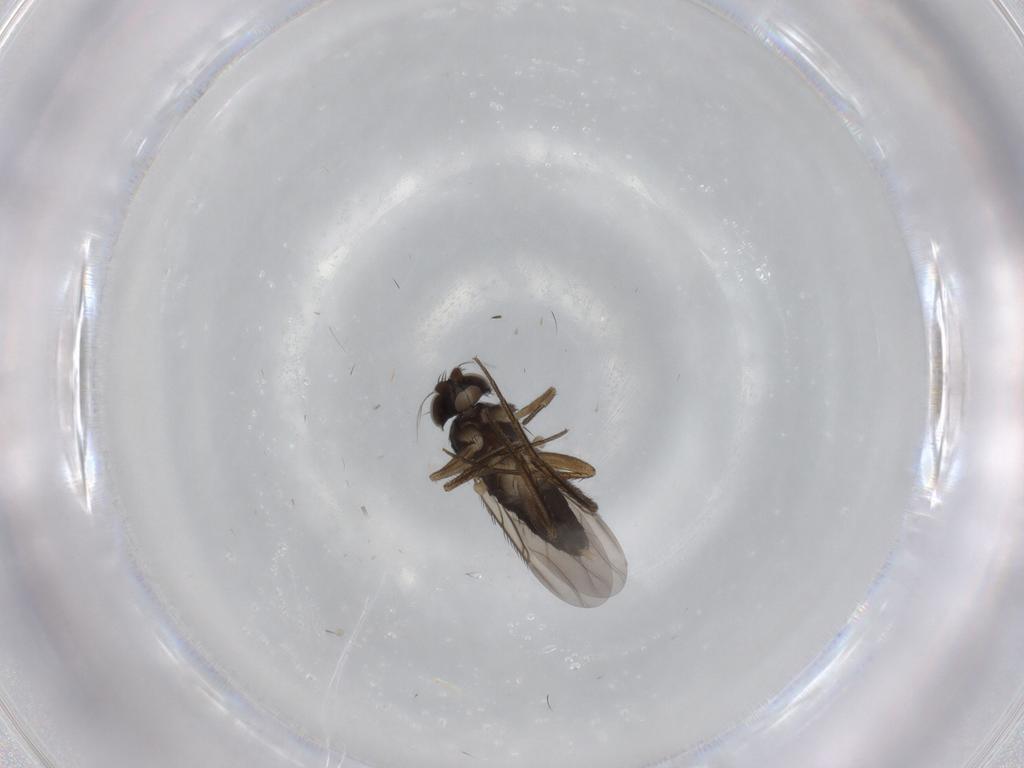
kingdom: Animalia
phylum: Arthropoda
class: Insecta
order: Diptera
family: Phoridae
